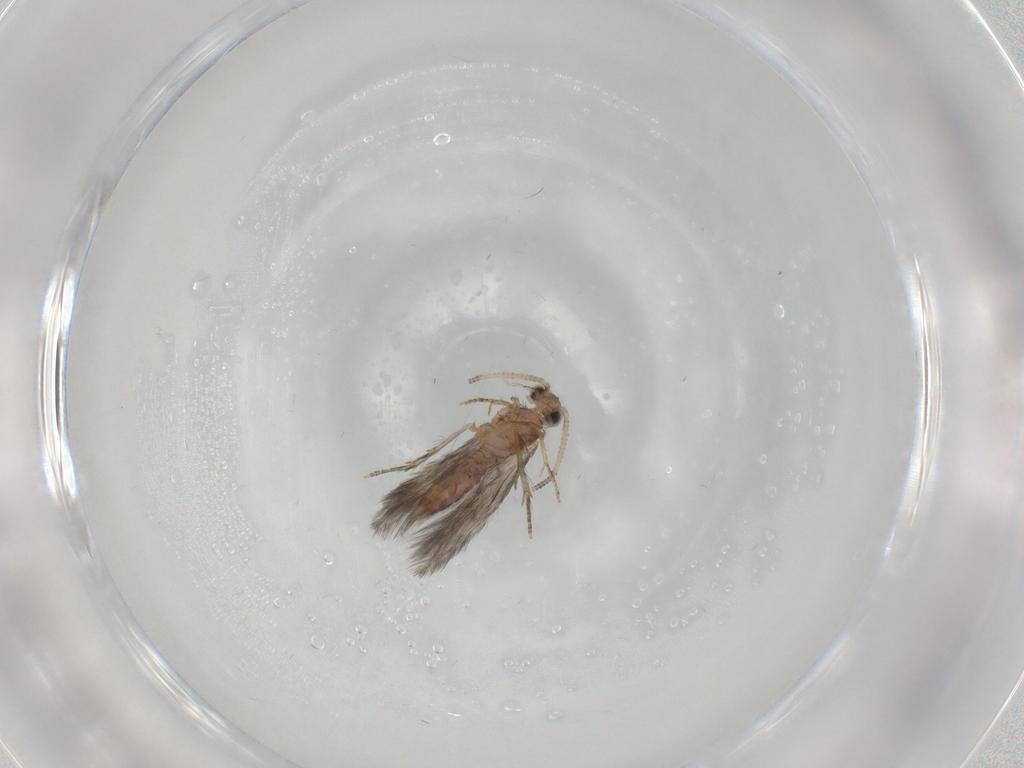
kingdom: Animalia
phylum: Arthropoda
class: Insecta
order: Trichoptera
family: Hydroptilidae
